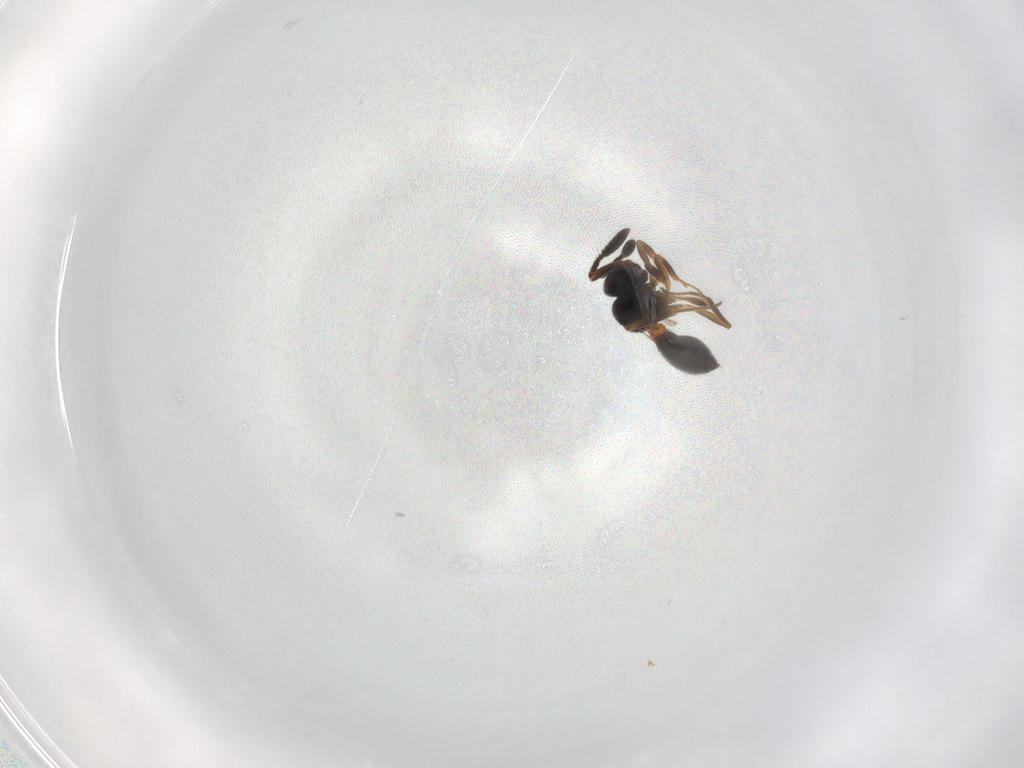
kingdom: Animalia
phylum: Arthropoda
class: Insecta
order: Hymenoptera
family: Scelionidae
